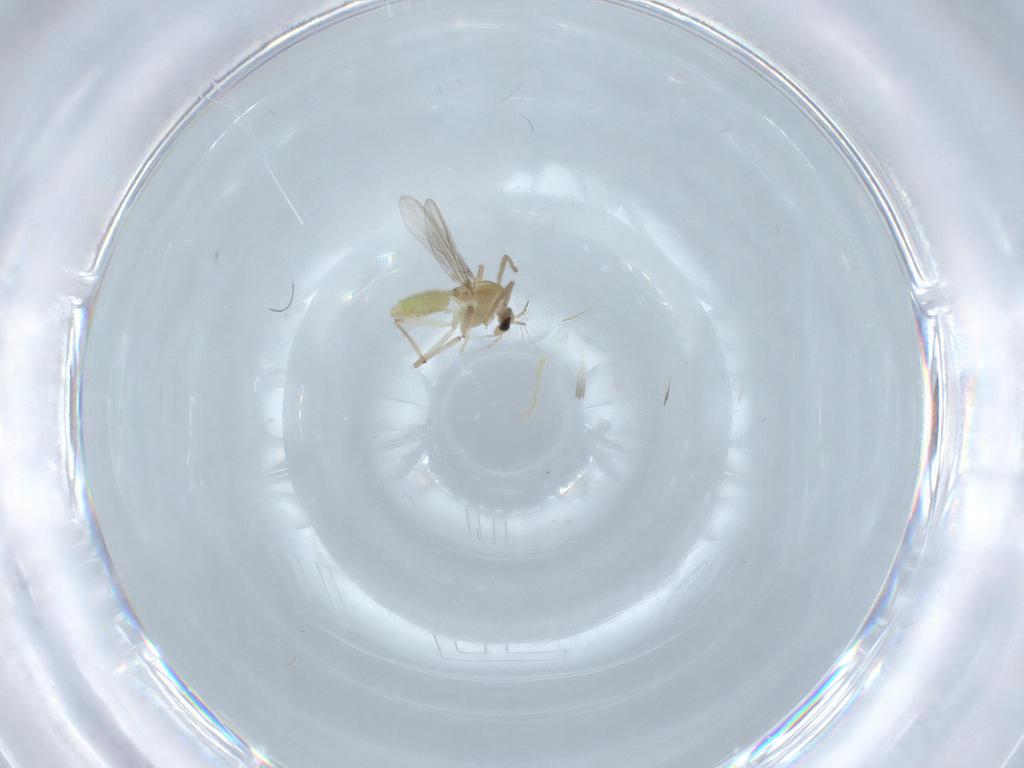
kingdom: Animalia
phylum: Arthropoda
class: Insecta
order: Diptera
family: Chironomidae
